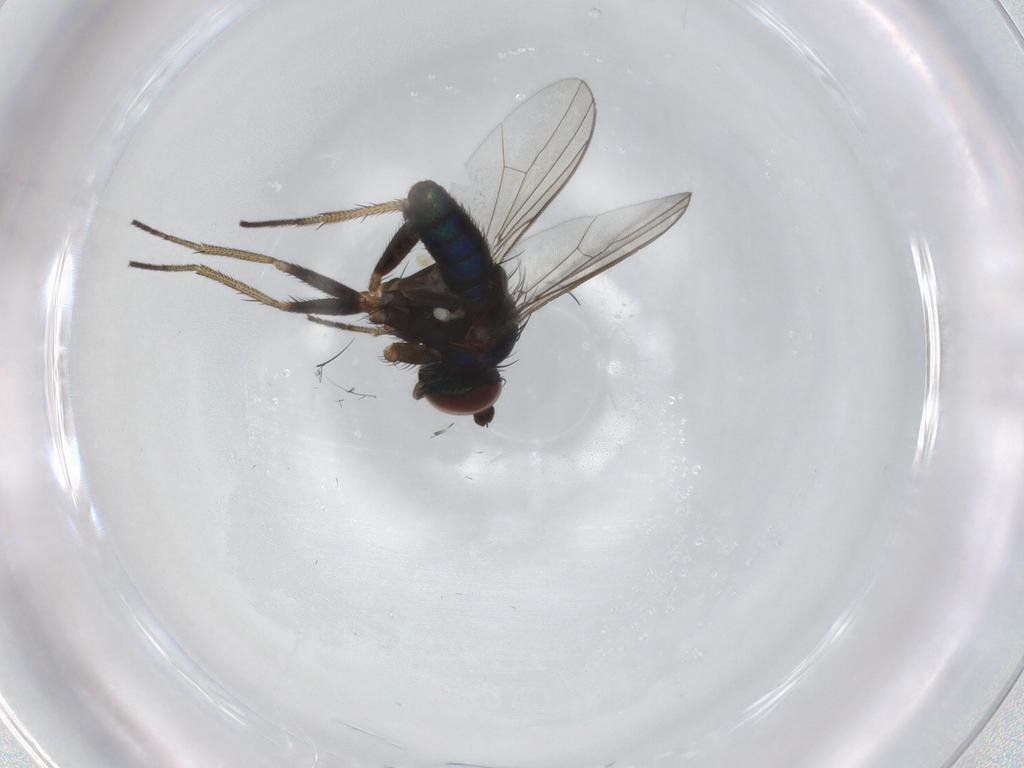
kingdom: Animalia
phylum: Arthropoda
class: Insecta
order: Diptera
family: Dolichopodidae
